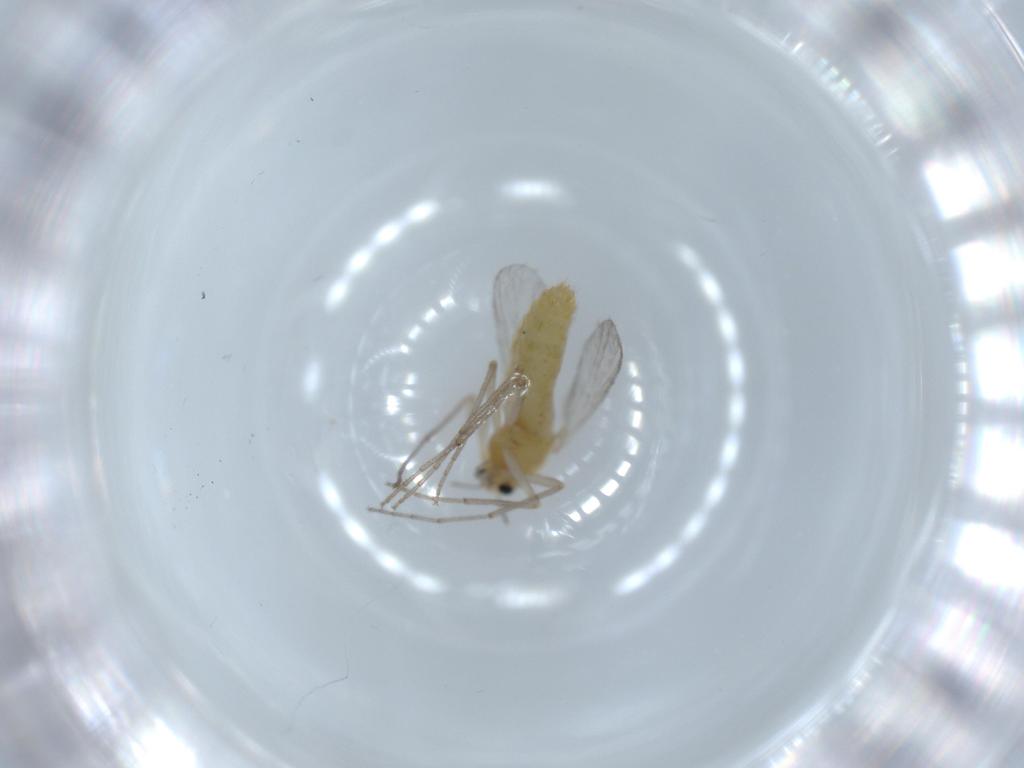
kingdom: Animalia
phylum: Arthropoda
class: Insecta
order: Diptera
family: Chironomidae
